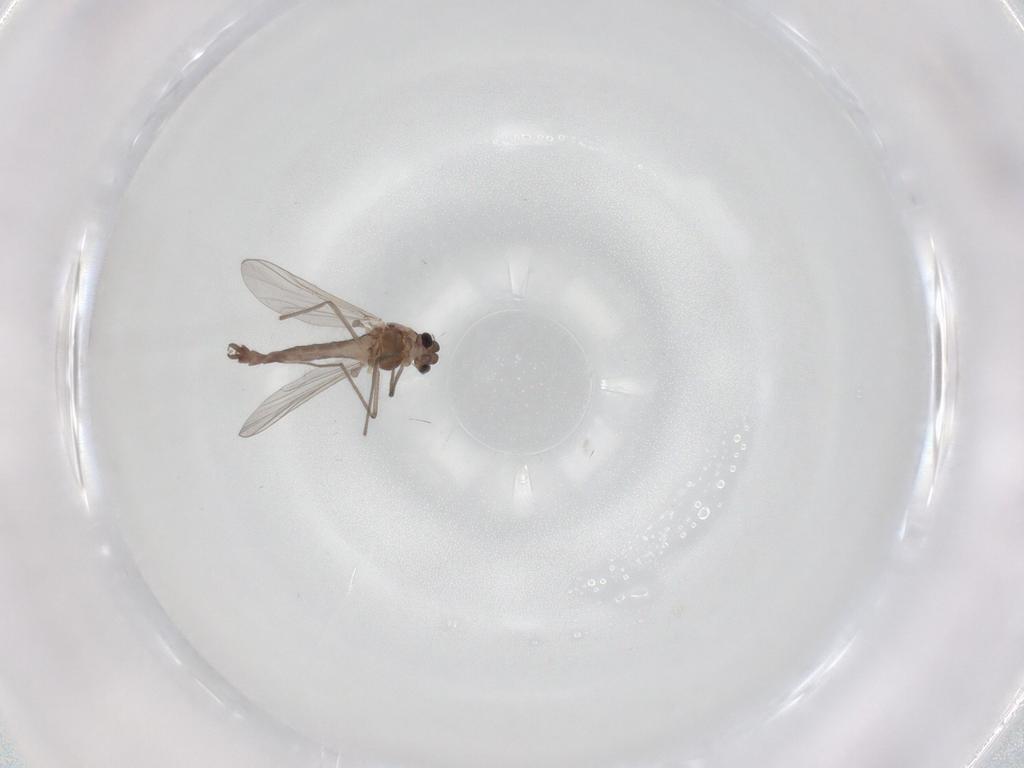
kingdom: Animalia
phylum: Arthropoda
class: Insecta
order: Diptera
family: Chironomidae
